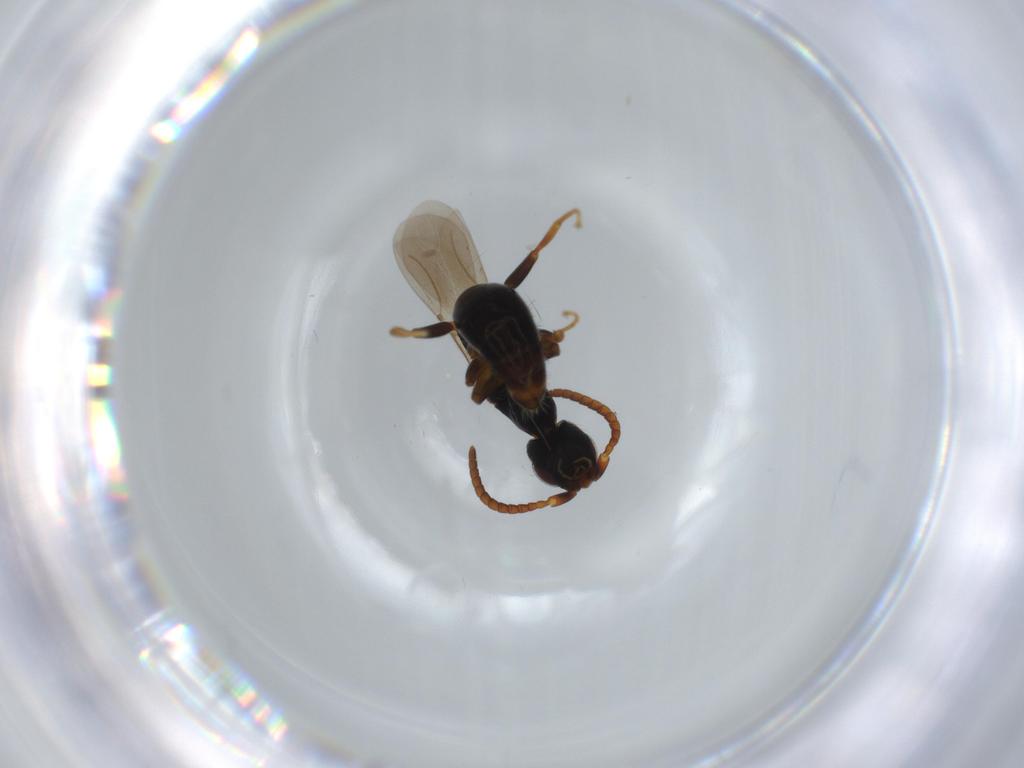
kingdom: Animalia
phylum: Arthropoda
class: Insecta
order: Hymenoptera
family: Bethylidae
